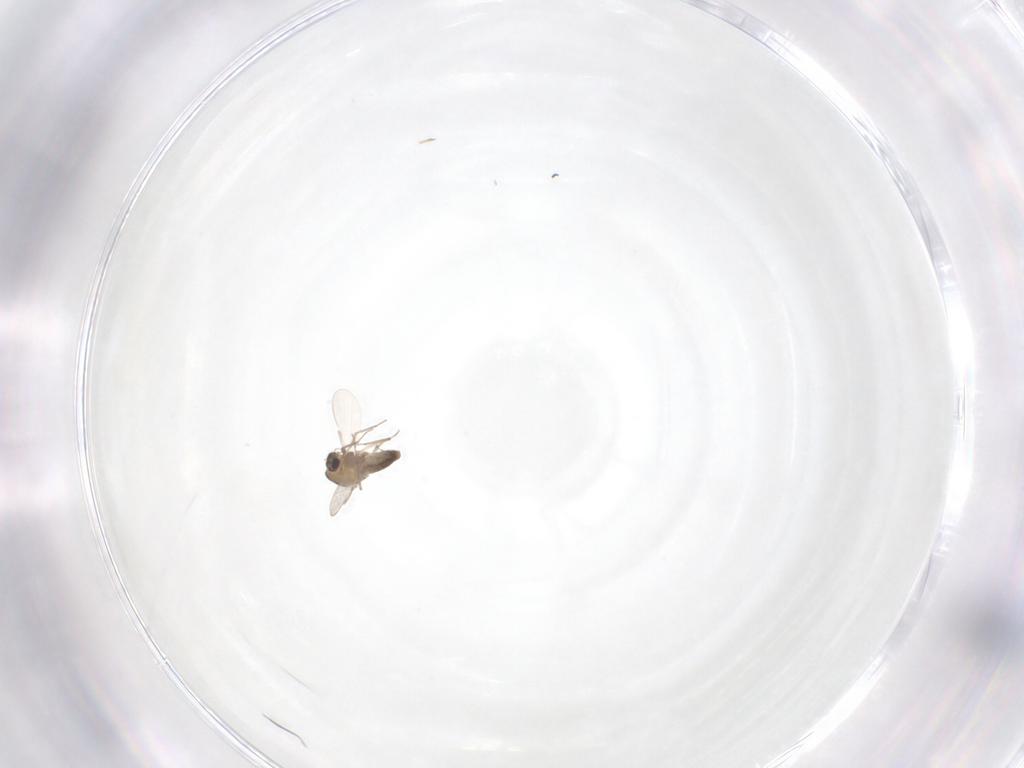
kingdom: Animalia
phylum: Arthropoda
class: Insecta
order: Diptera
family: Chironomidae
